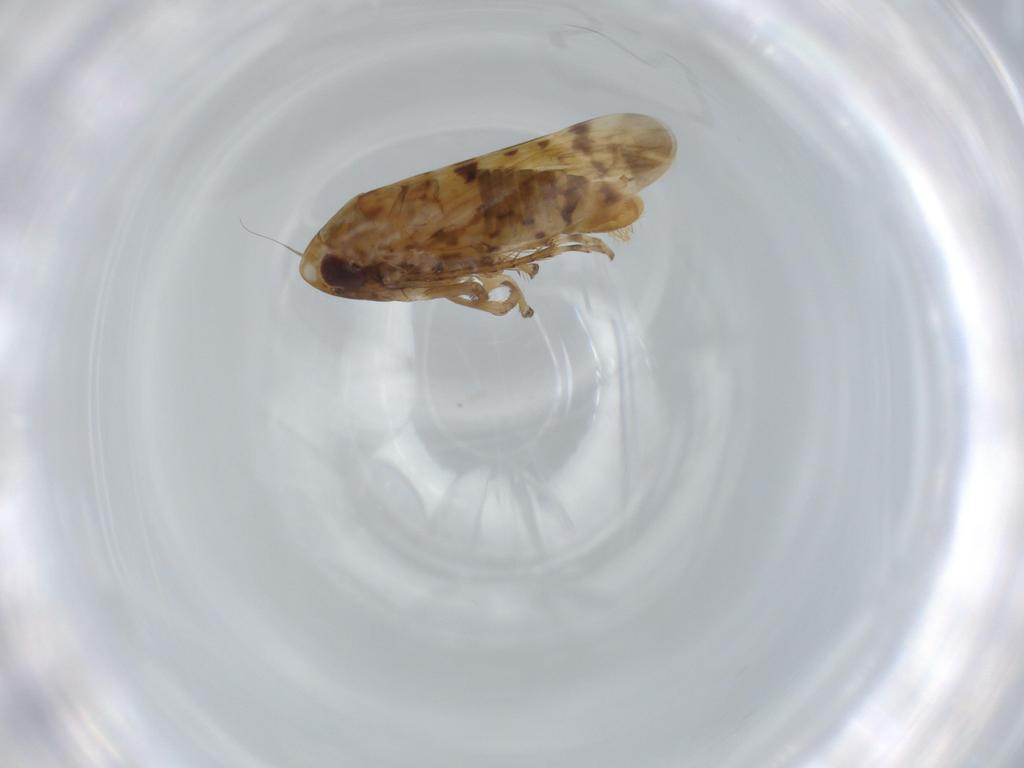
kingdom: Animalia
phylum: Arthropoda
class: Insecta
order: Hemiptera
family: Cicadellidae
